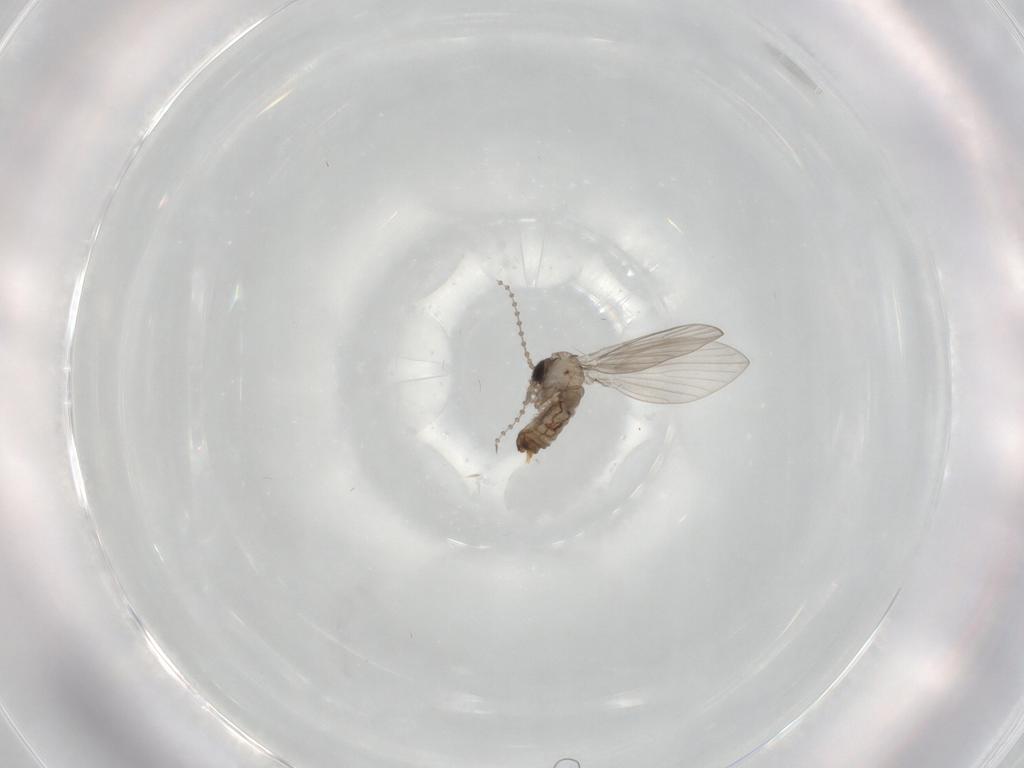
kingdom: Animalia
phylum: Arthropoda
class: Insecta
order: Diptera
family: Psychodidae
